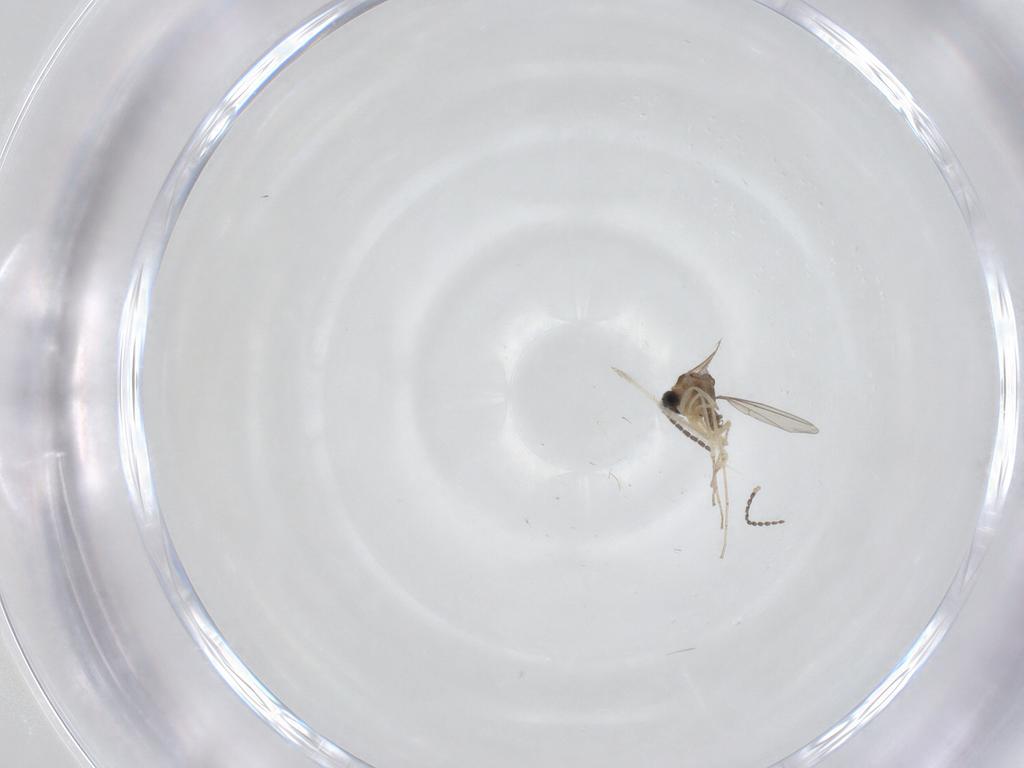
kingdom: Animalia
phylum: Arthropoda
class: Insecta
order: Diptera
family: Cecidomyiidae
